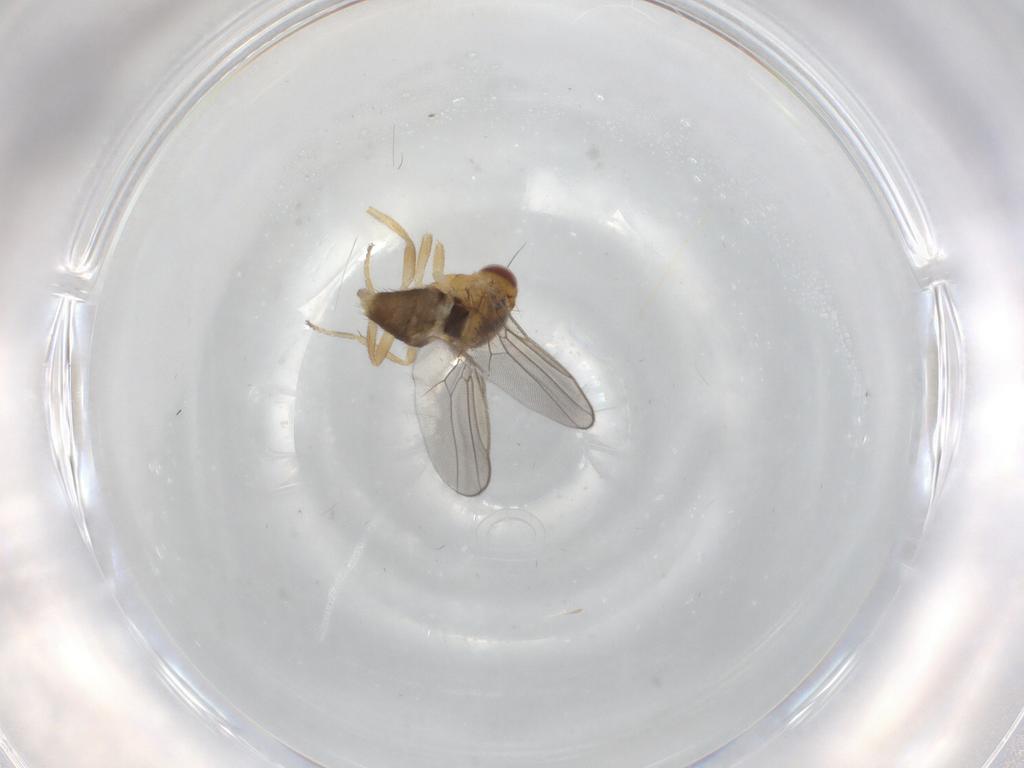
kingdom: Animalia
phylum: Arthropoda
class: Insecta
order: Diptera
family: Chloropidae
